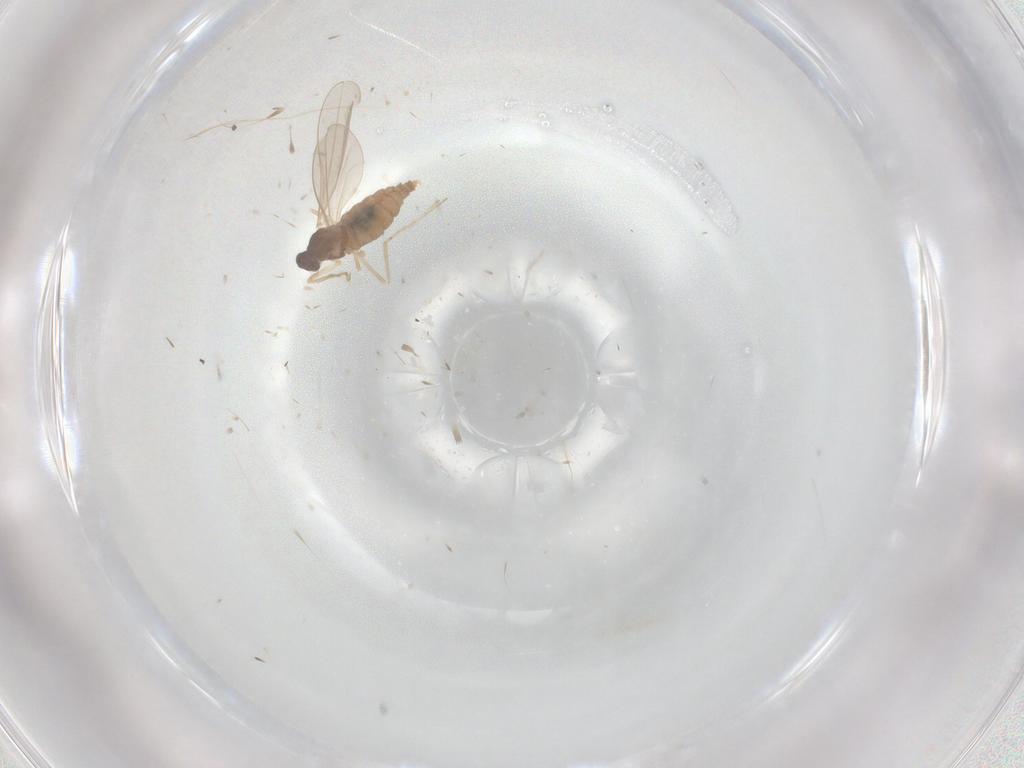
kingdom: Animalia
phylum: Arthropoda
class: Insecta
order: Diptera
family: Cecidomyiidae
